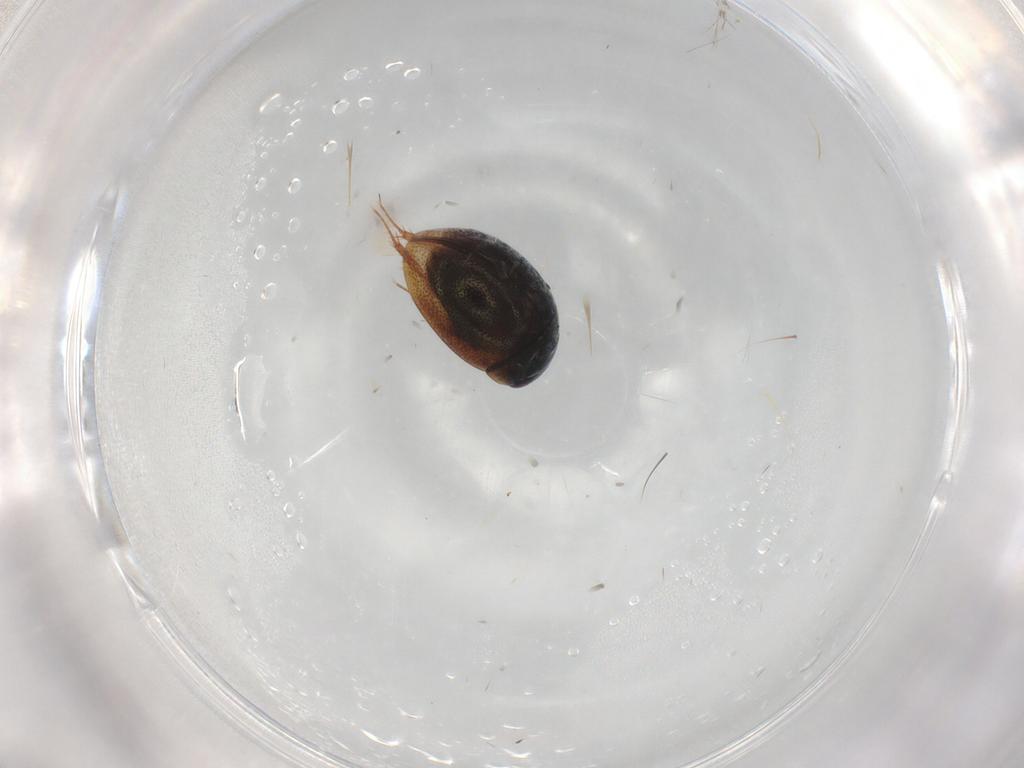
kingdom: Animalia
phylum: Arthropoda
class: Insecta
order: Coleoptera
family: Hydrophilidae
